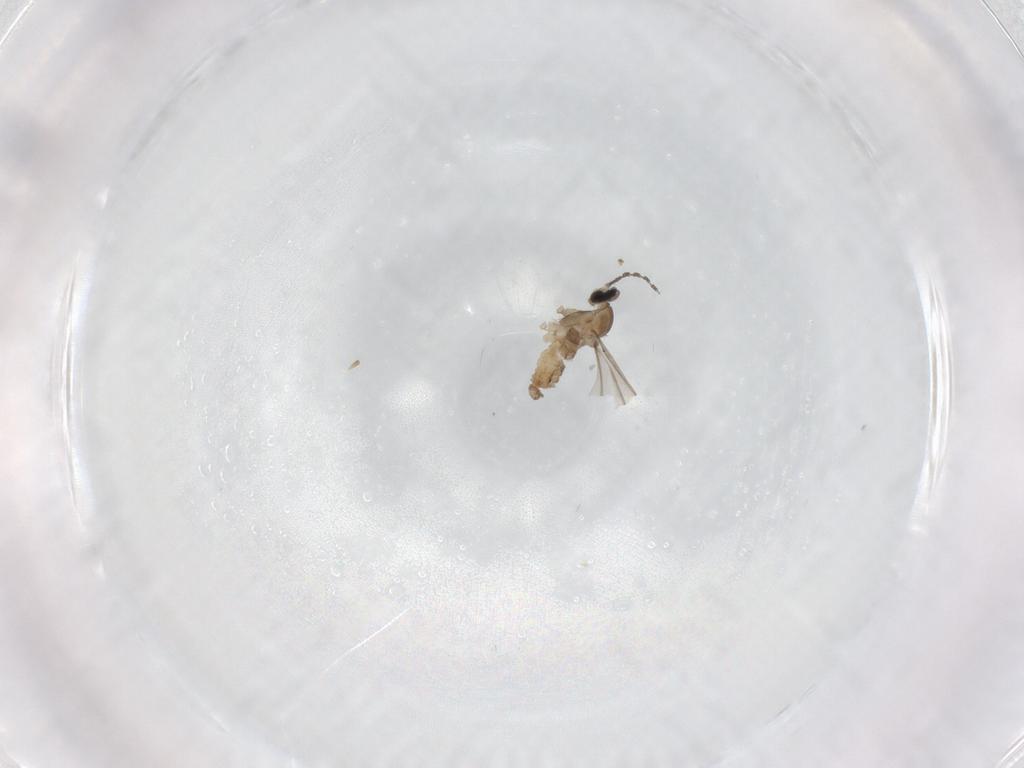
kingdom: Animalia
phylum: Arthropoda
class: Insecta
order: Diptera
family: Cecidomyiidae
